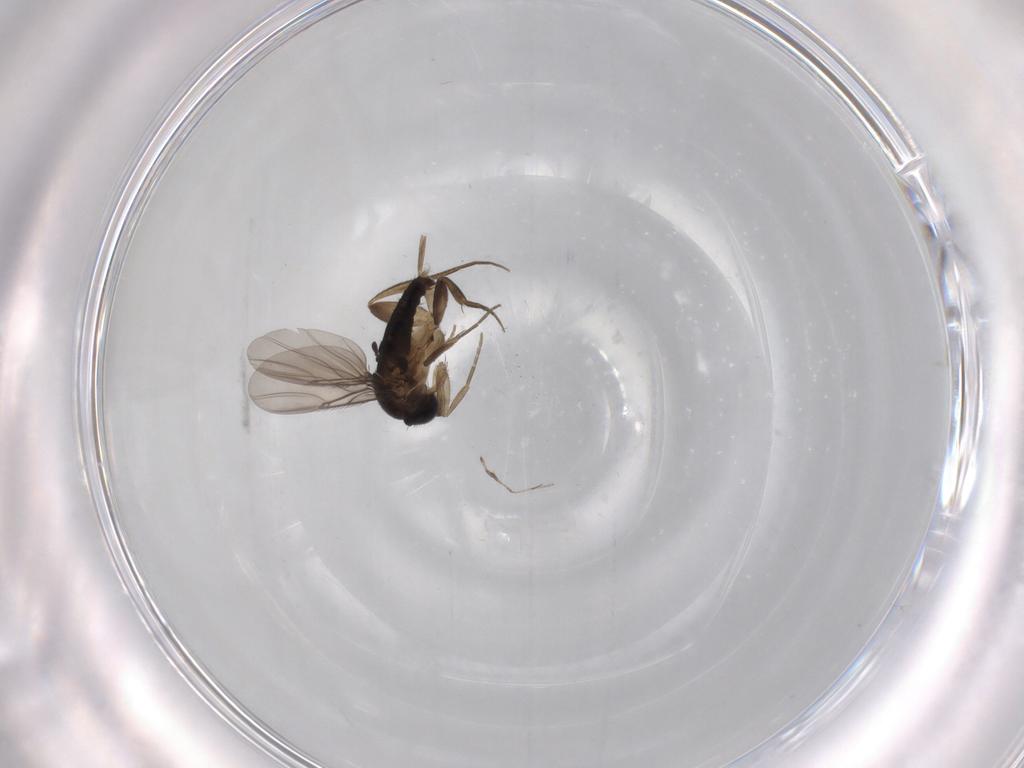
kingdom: Animalia
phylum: Arthropoda
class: Insecta
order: Diptera
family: Phoridae
